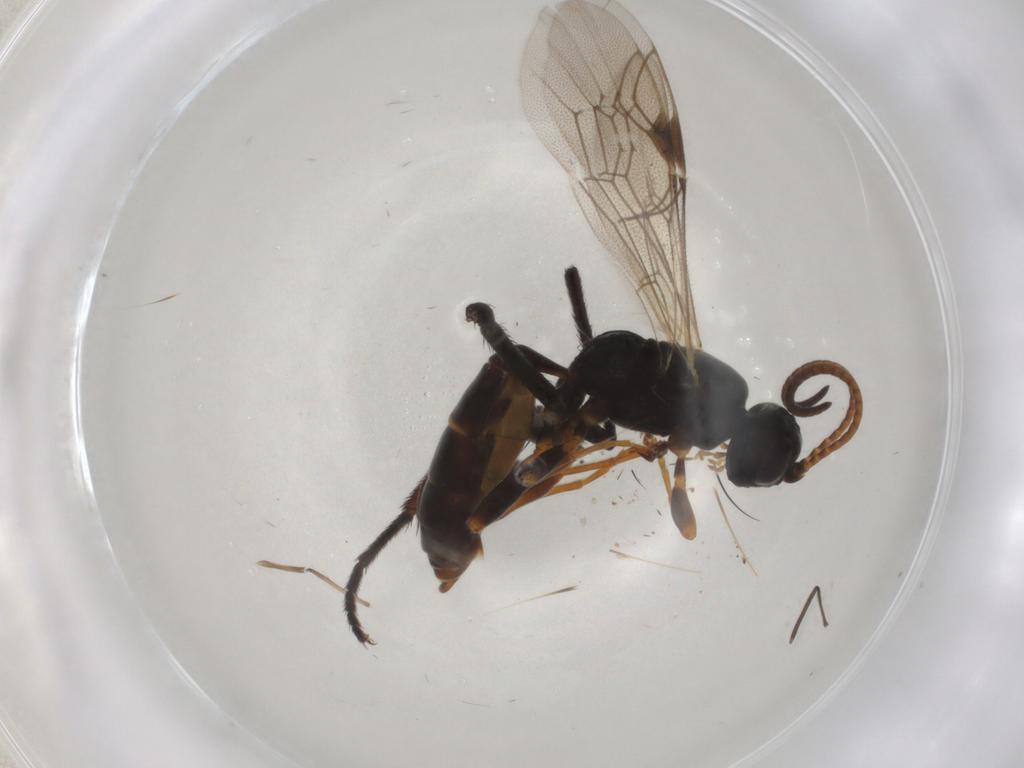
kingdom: Animalia
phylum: Arthropoda
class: Insecta
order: Hymenoptera
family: Ichneumonidae
